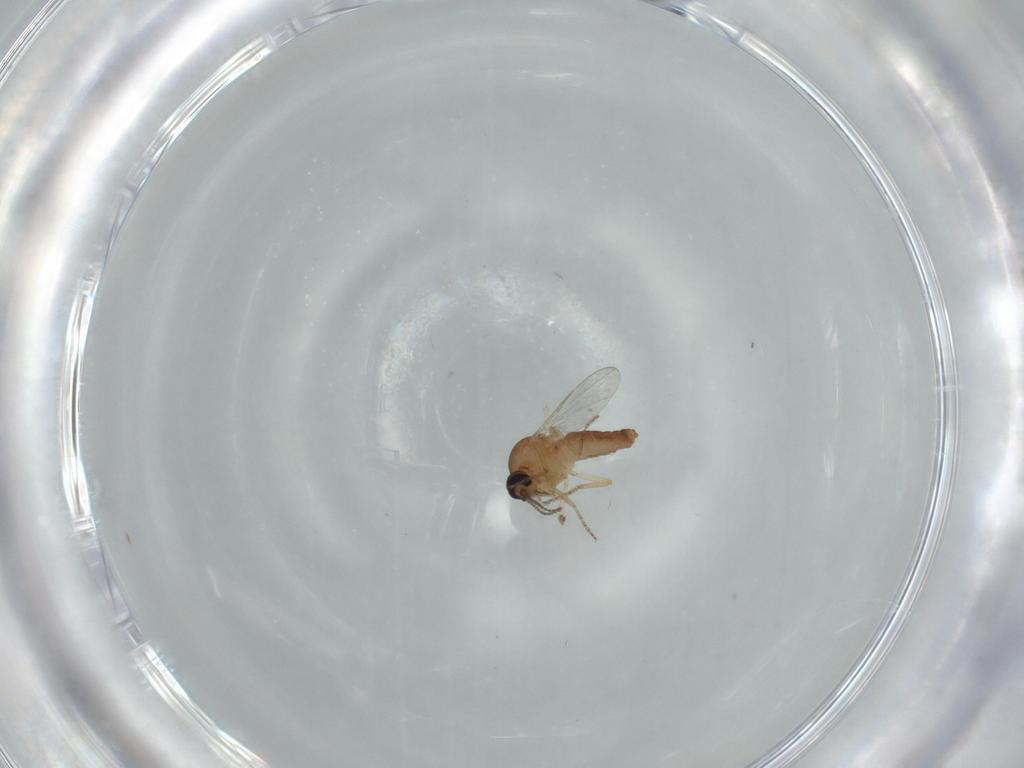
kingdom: Animalia
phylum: Arthropoda
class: Insecta
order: Diptera
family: Ceratopogonidae
